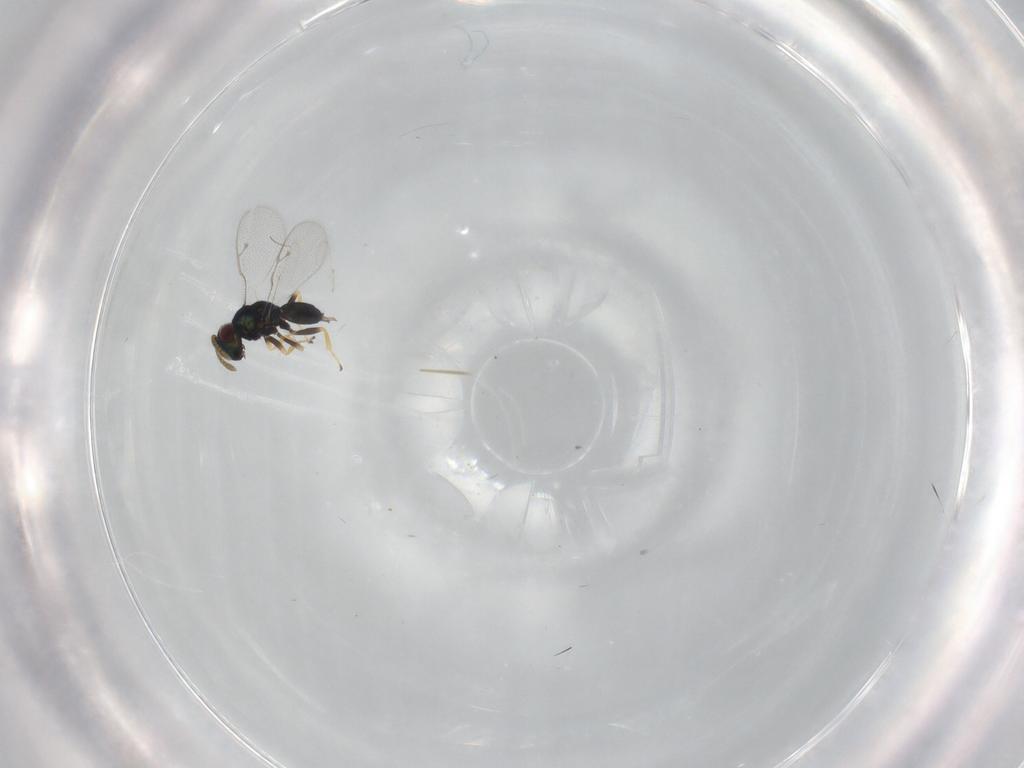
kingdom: Animalia
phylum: Arthropoda
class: Insecta
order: Hymenoptera
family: Pteromalidae
